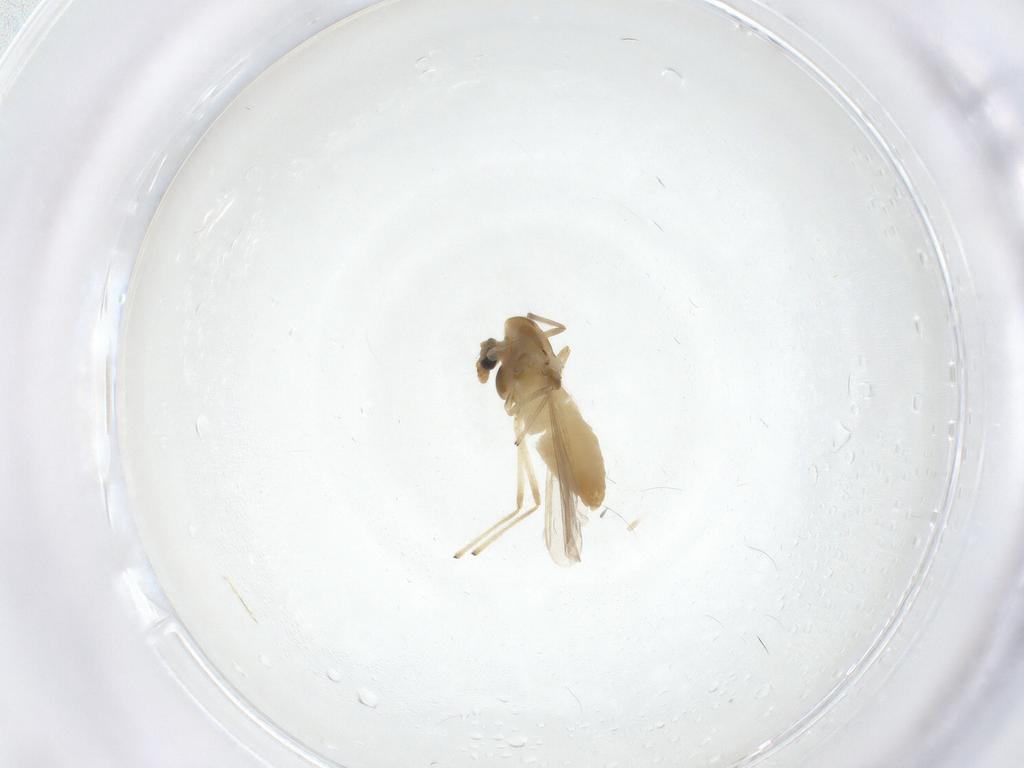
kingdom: Animalia
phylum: Arthropoda
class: Insecta
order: Diptera
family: Chironomidae
